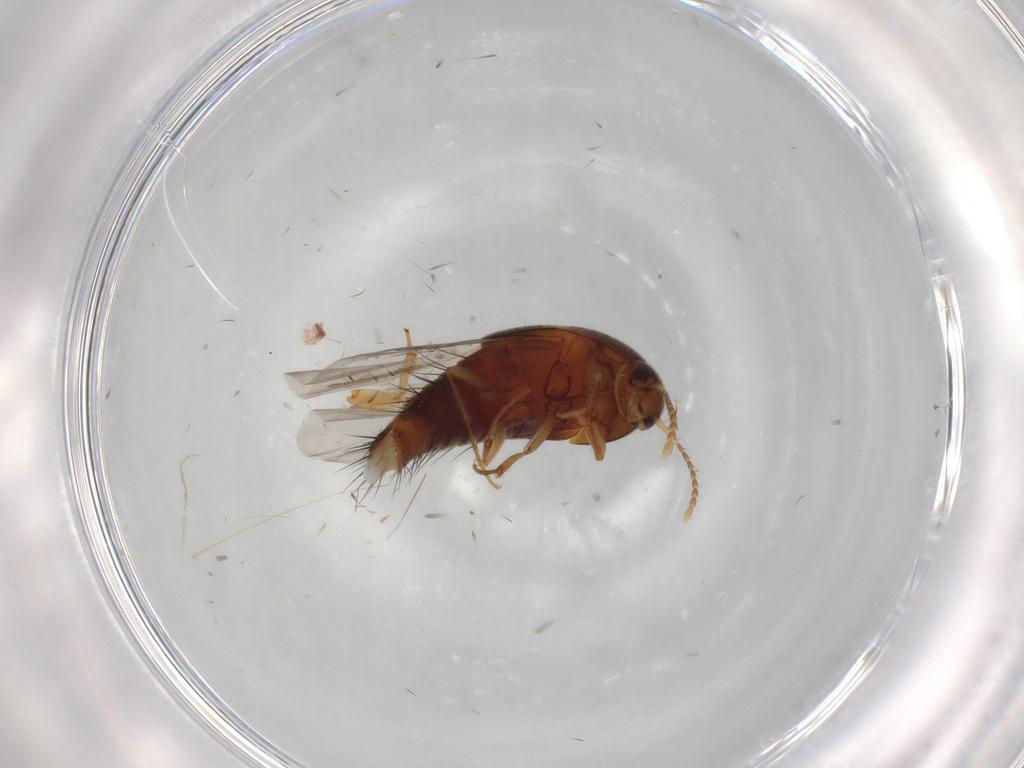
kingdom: Animalia
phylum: Arthropoda
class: Insecta
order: Coleoptera
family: Staphylinidae
